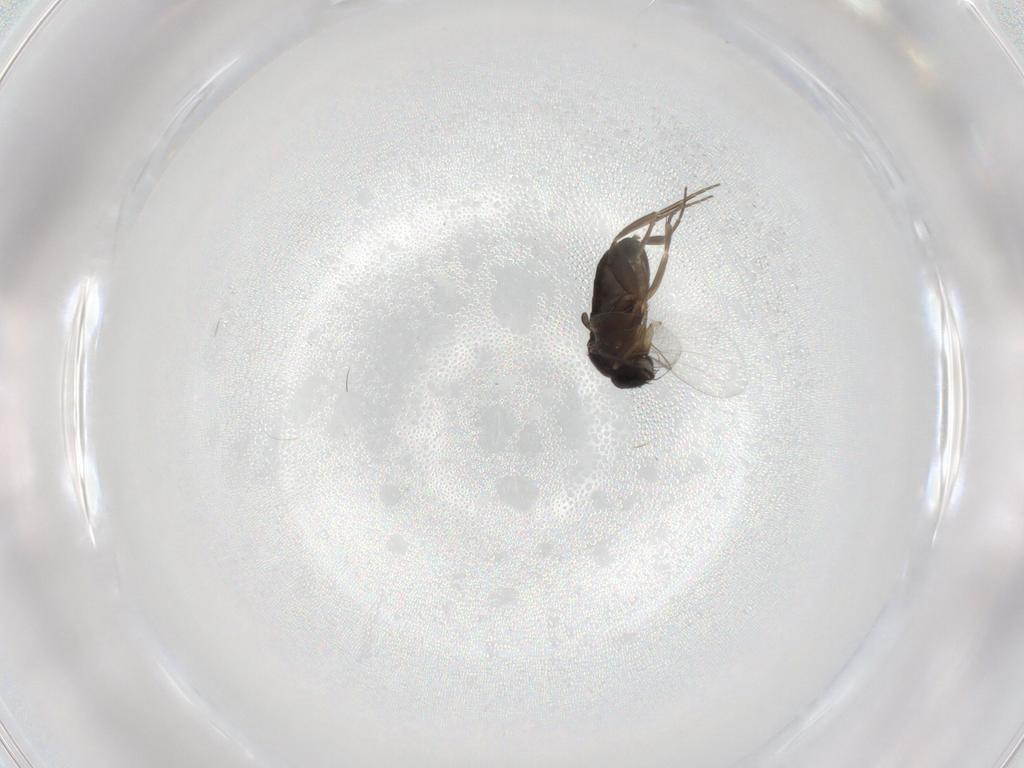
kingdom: Animalia
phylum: Arthropoda
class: Insecta
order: Diptera
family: Phoridae
